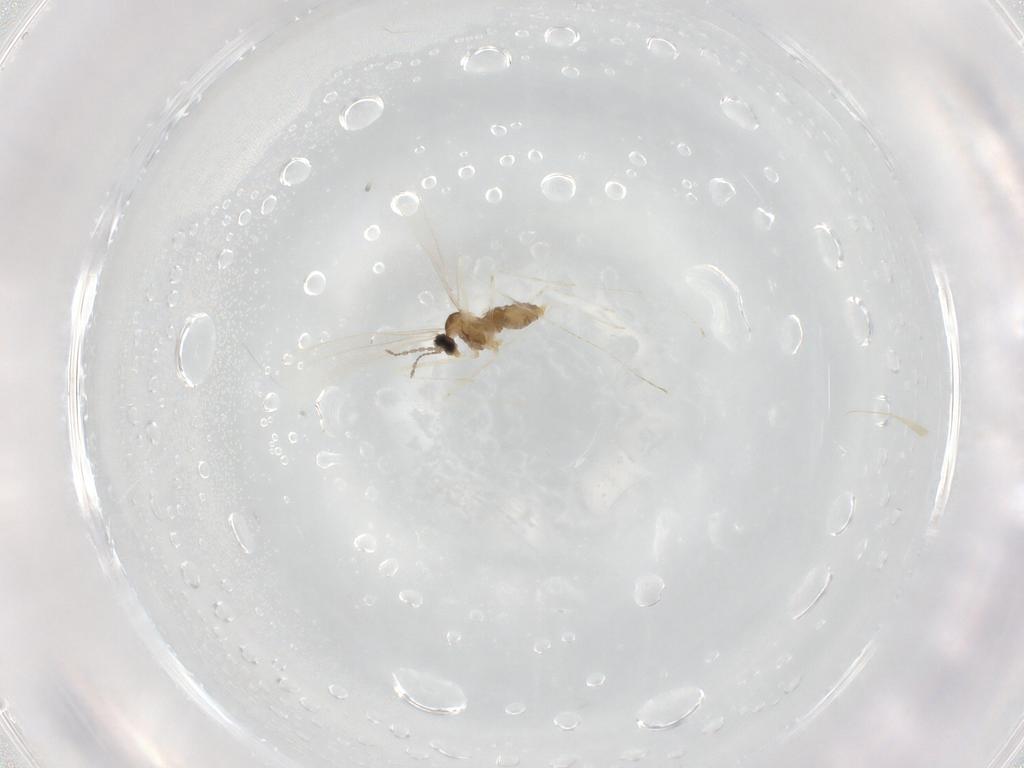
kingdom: Animalia
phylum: Arthropoda
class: Insecta
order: Diptera
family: Cecidomyiidae
